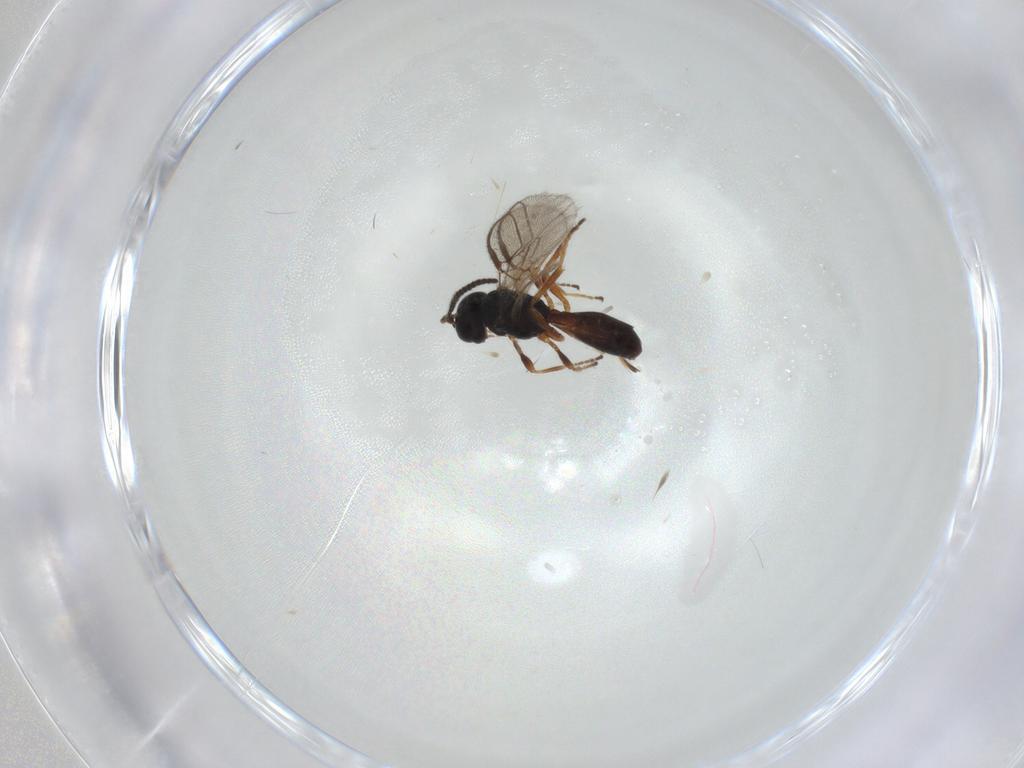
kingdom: Animalia
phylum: Arthropoda
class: Insecta
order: Hymenoptera
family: Braconidae
